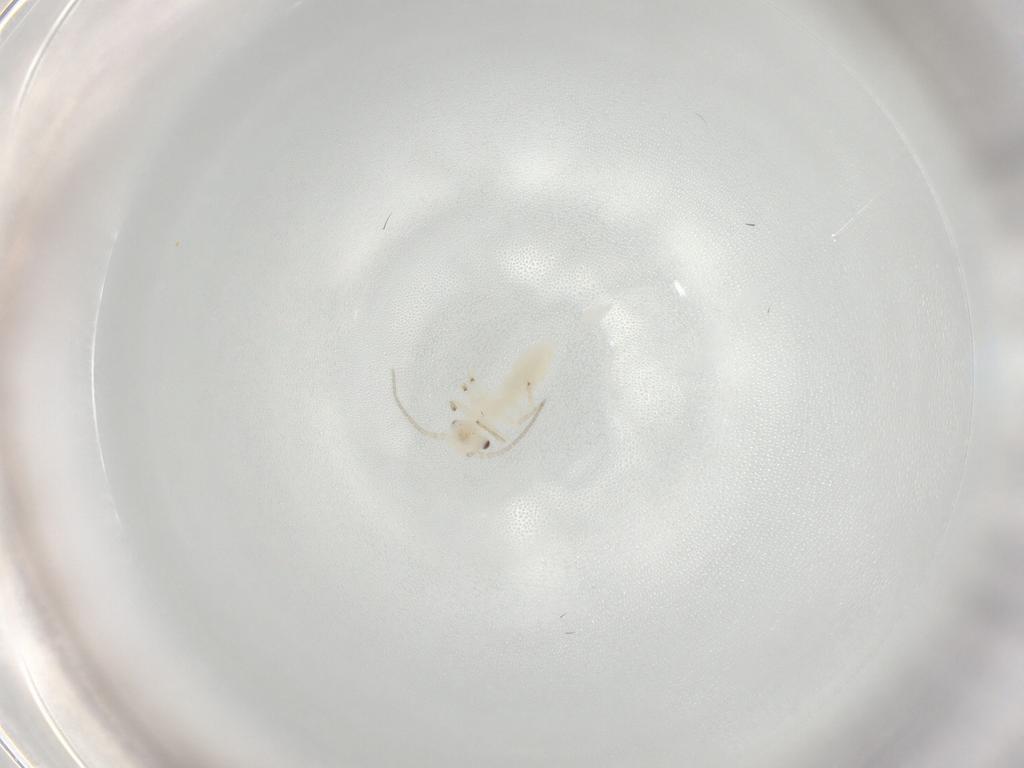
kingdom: Animalia
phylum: Arthropoda
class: Insecta
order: Psocodea
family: Caeciliusidae
